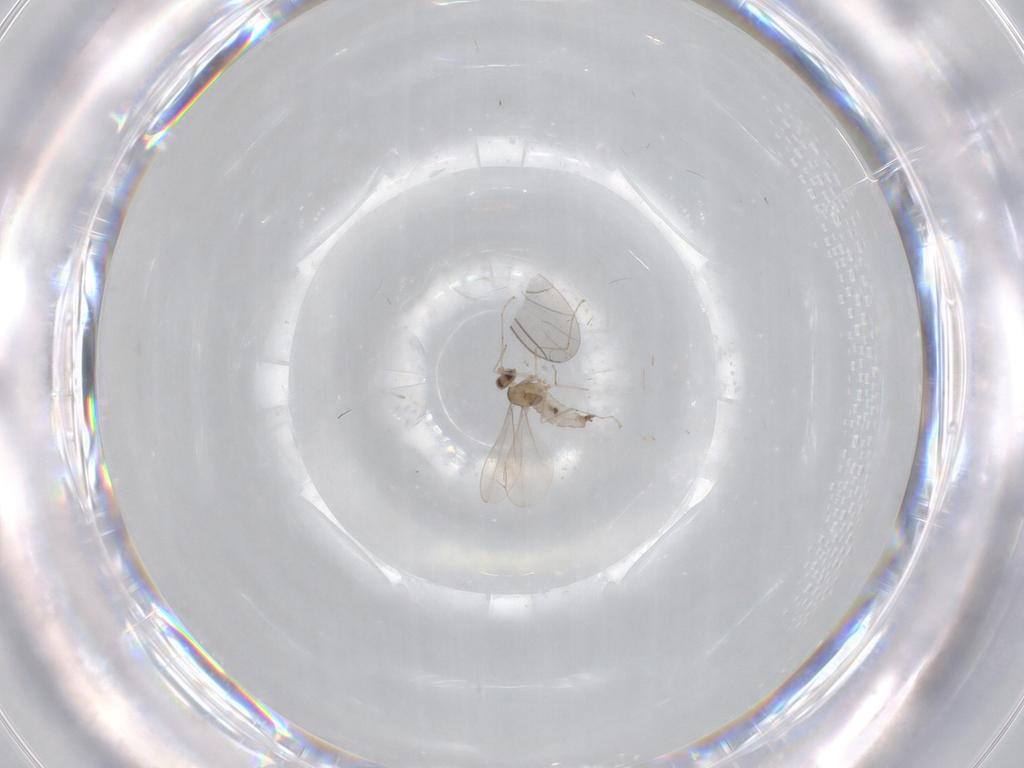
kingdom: Animalia
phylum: Arthropoda
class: Insecta
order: Diptera
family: Cecidomyiidae
